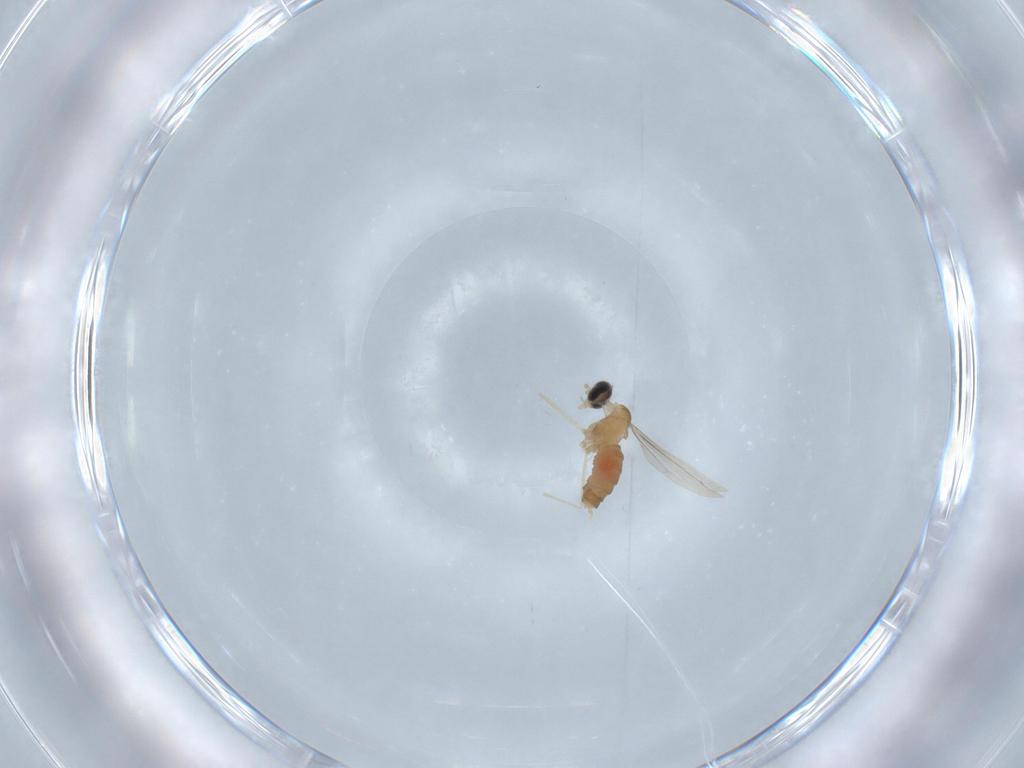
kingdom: Animalia
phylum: Arthropoda
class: Insecta
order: Diptera
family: Cecidomyiidae
